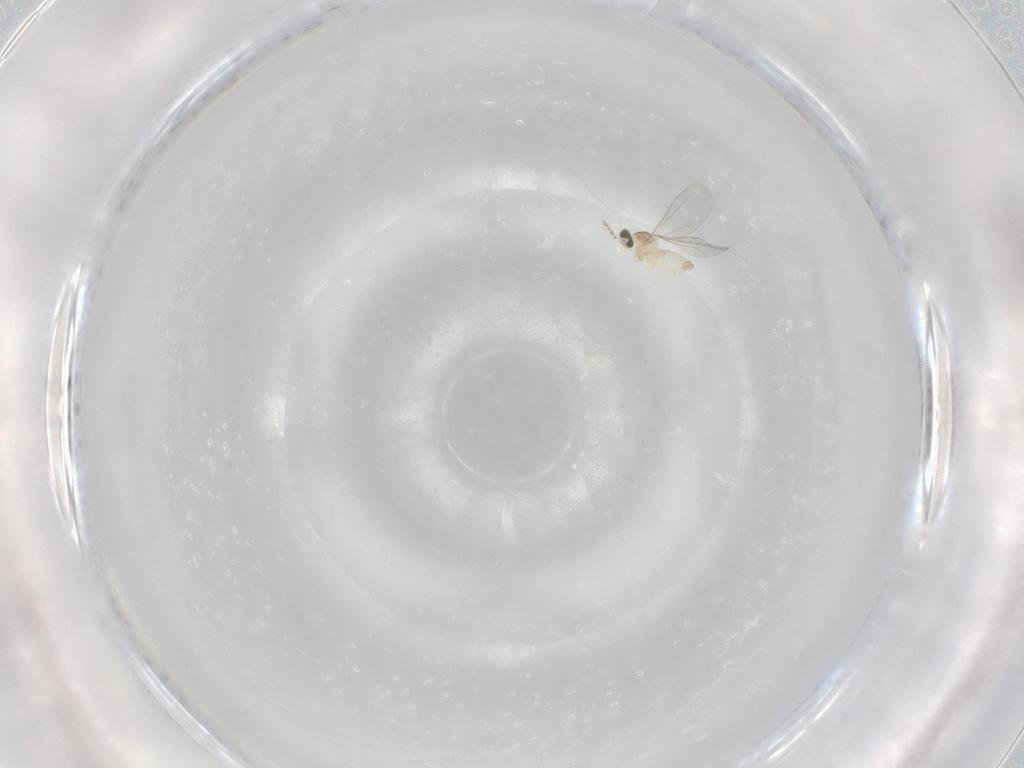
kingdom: Animalia
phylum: Arthropoda
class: Insecta
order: Diptera
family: Cecidomyiidae
